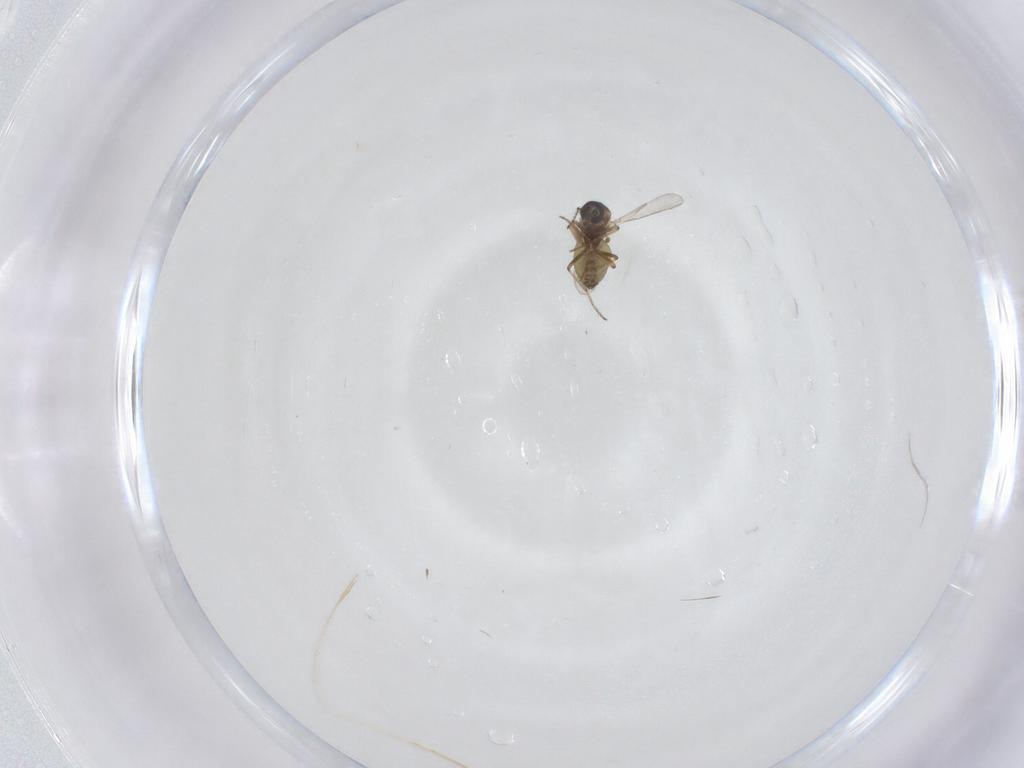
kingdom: Animalia
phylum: Arthropoda
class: Insecta
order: Diptera
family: Ceratopogonidae
